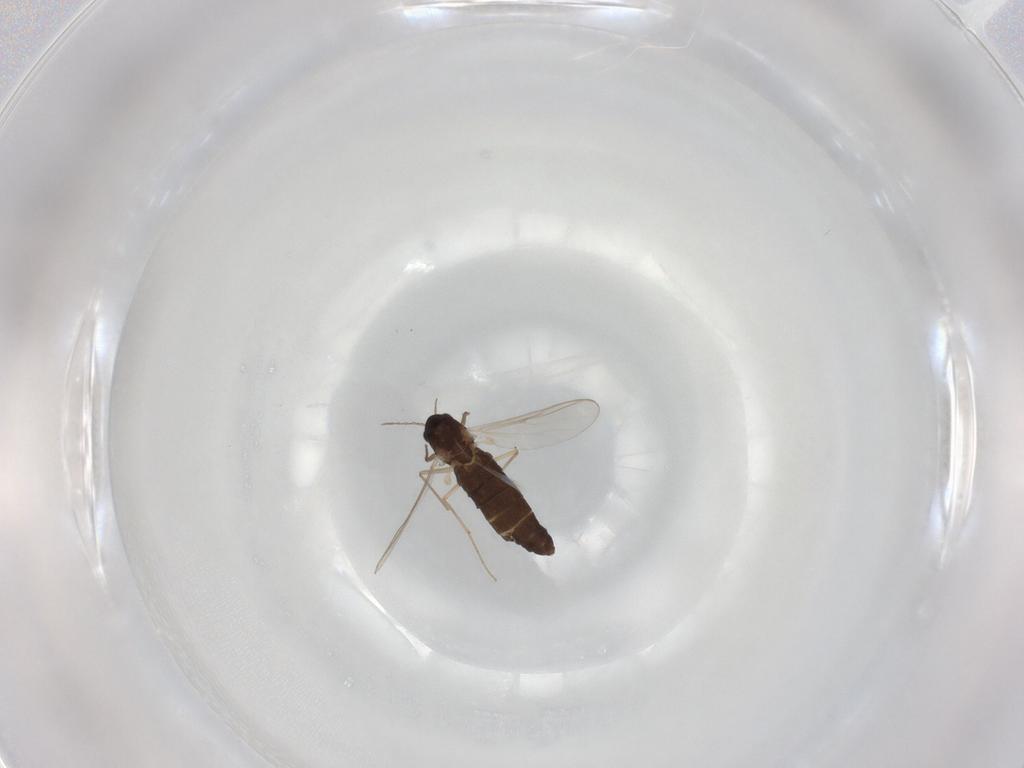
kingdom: Animalia
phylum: Arthropoda
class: Insecta
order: Diptera
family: Chironomidae
